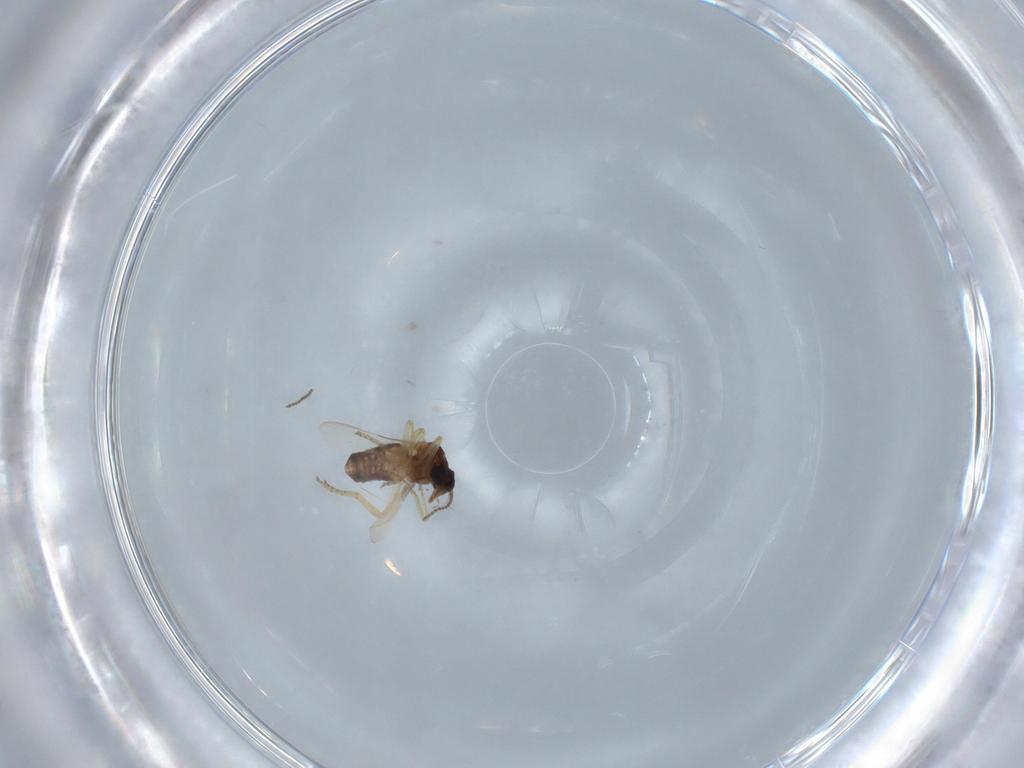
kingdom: Animalia
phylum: Arthropoda
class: Insecta
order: Diptera
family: Ceratopogonidae
